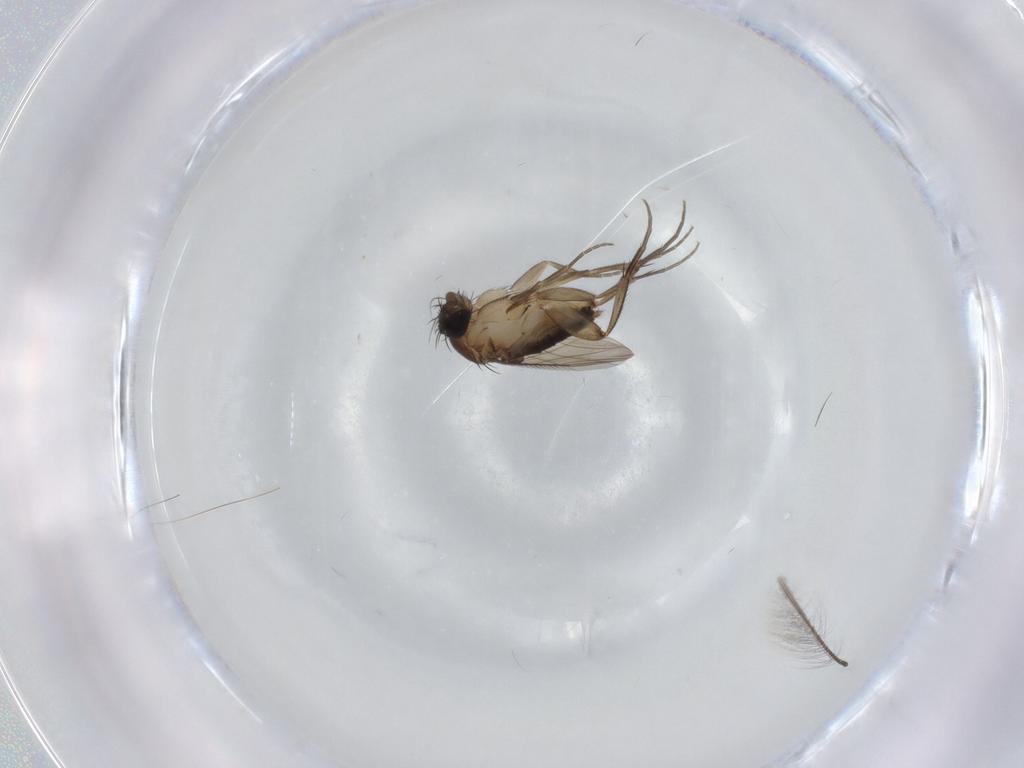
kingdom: Animalia
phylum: Arthropoda
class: Insecta
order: Diptera
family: Phoridae
